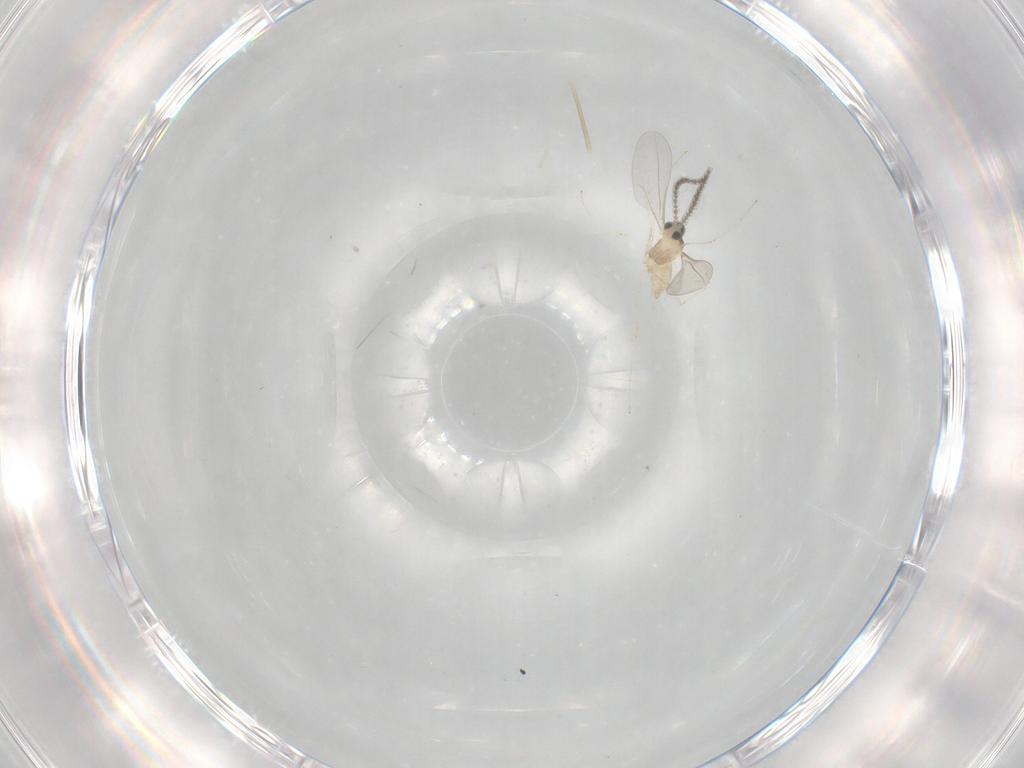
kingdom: Animalia
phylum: Arthropoda
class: Insecta
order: Diptera
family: Cecidomyiidae
